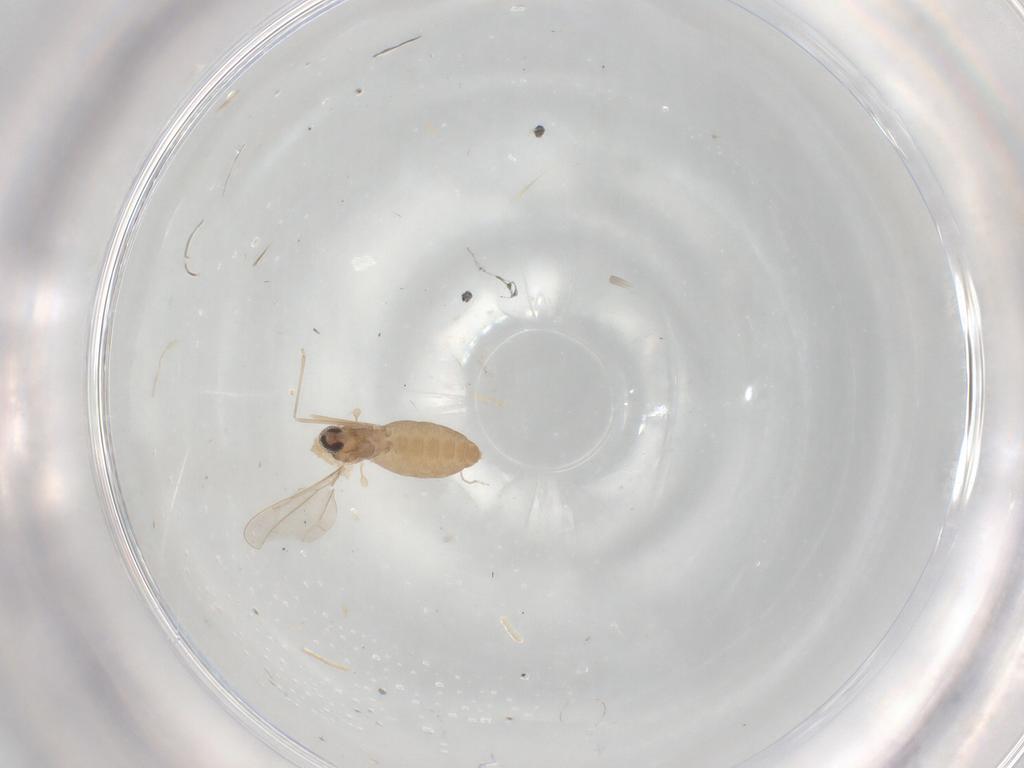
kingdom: Animalia
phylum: Arthropoda
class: Insecta
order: Diptera
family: Cecidomyiidae
